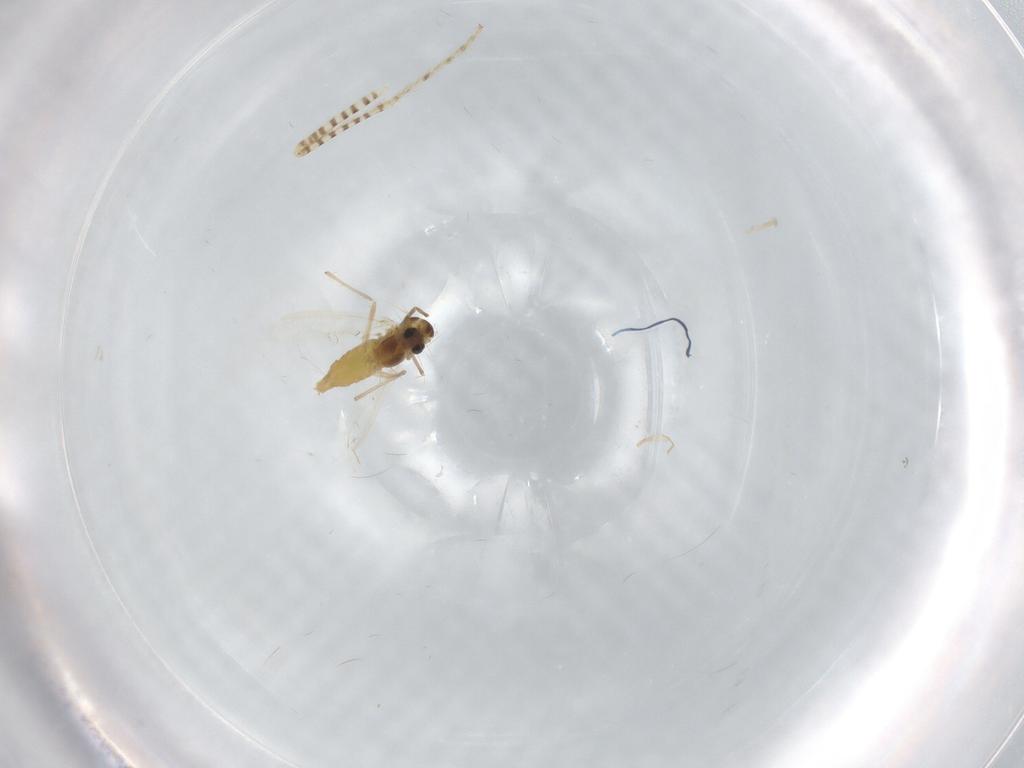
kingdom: Animalia
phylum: Arthropoda
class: Insecta
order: Diptera
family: Chironomidae
